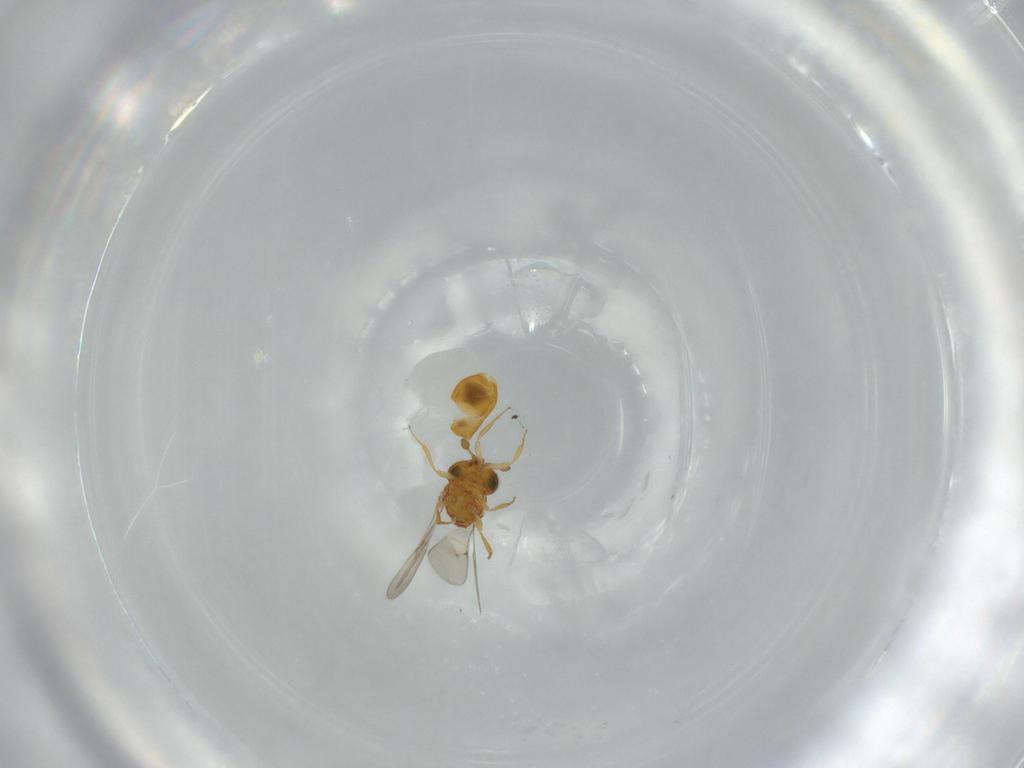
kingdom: Animalia
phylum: Arthropoda
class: Insecta
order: Hymenoptera
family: Scelionidae
